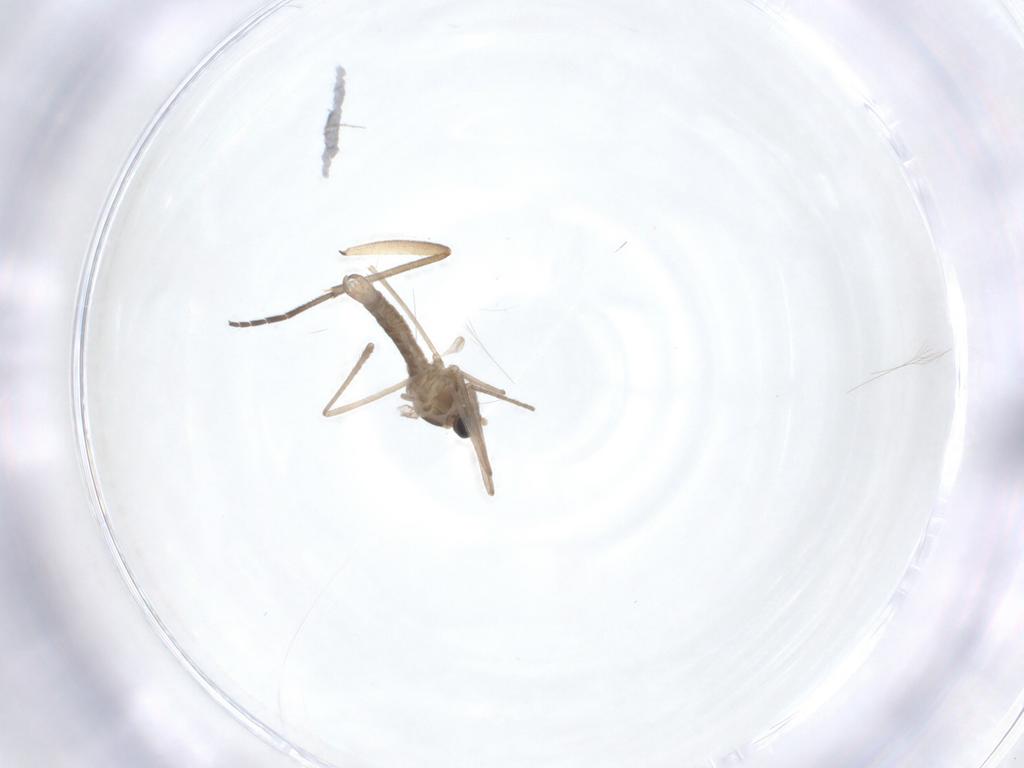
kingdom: Animalia
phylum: Arthropoda
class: Insecta
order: Diptera
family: Cecidomyiidae
